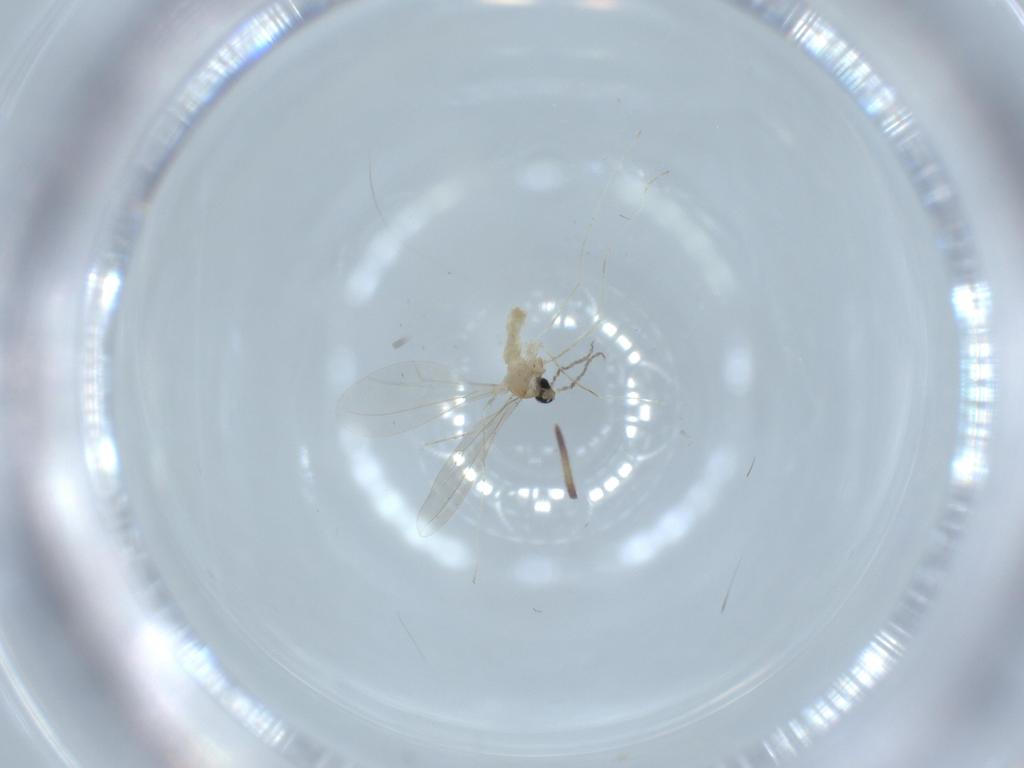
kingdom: Animalia
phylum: Arthropoda
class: Insecta
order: Diptera
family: Cecidomyiidae
